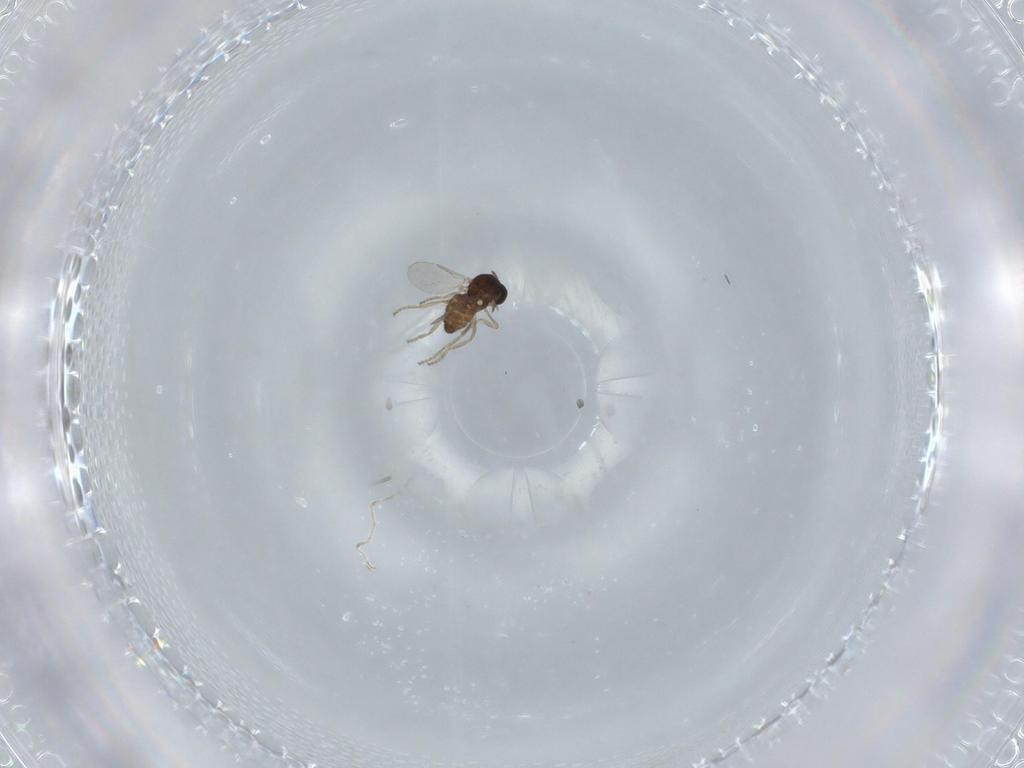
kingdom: Animalia
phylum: Arthropoda
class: Insecta
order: Diptera
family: Ceratopogonidae
